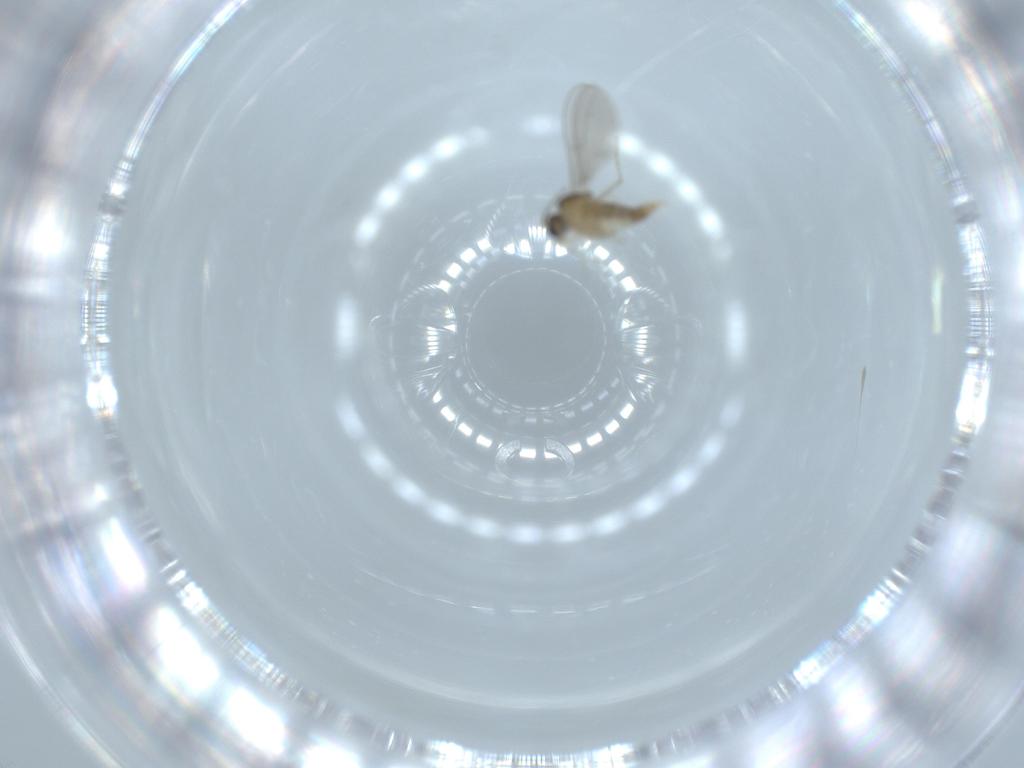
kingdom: Animalia
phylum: Arthropoda
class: Insecta
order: Diptera
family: Cecidomyiidae
